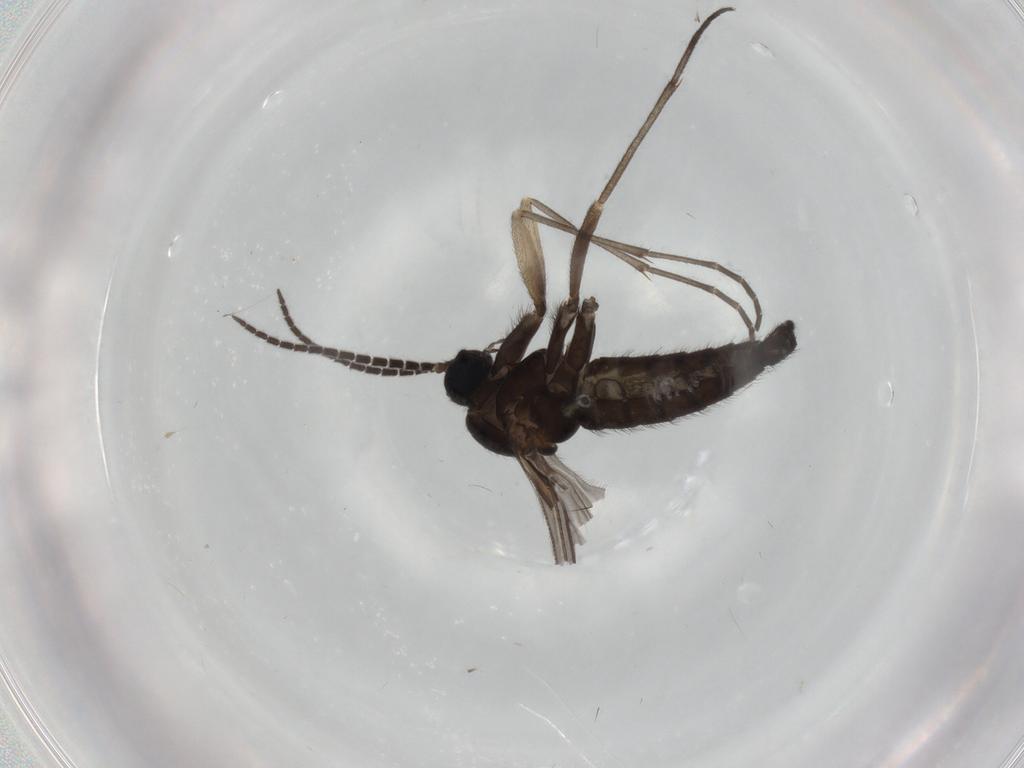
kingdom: Animalia
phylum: Arthropoda
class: Insecta
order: Diptera
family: Sciaridae
